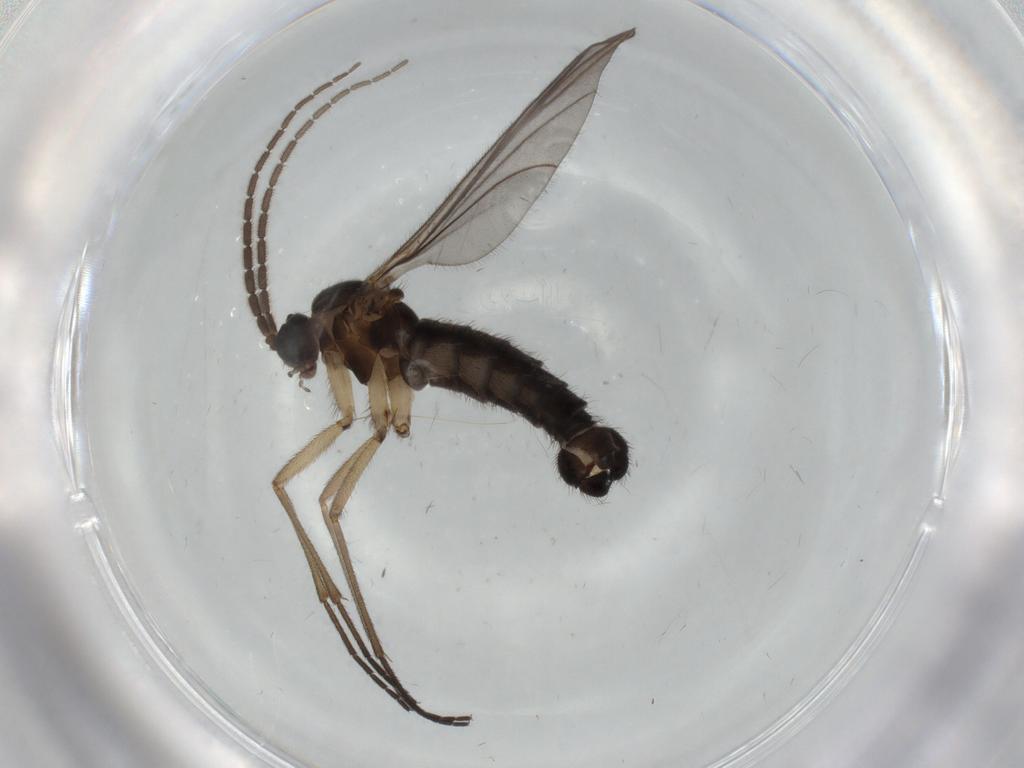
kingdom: Animalia
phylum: Arthropoda
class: Insecta
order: Diptera
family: Sciaridae
